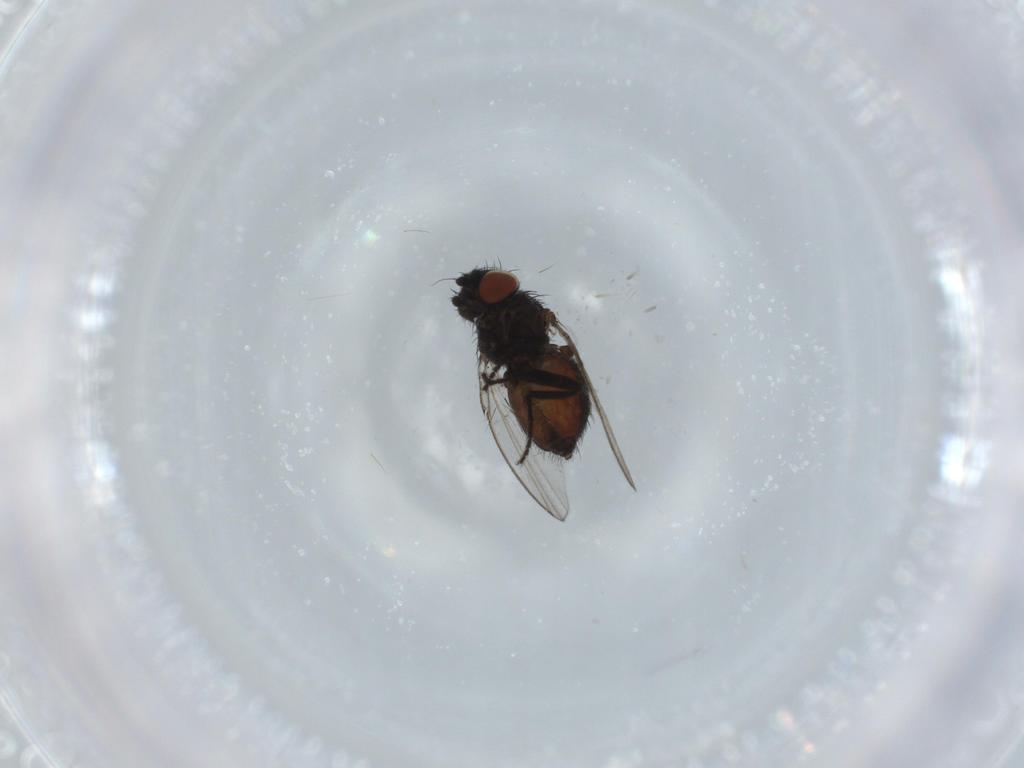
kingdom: Animalia
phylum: Arthropoda
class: Insecta
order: Diptera
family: Milichiidae
